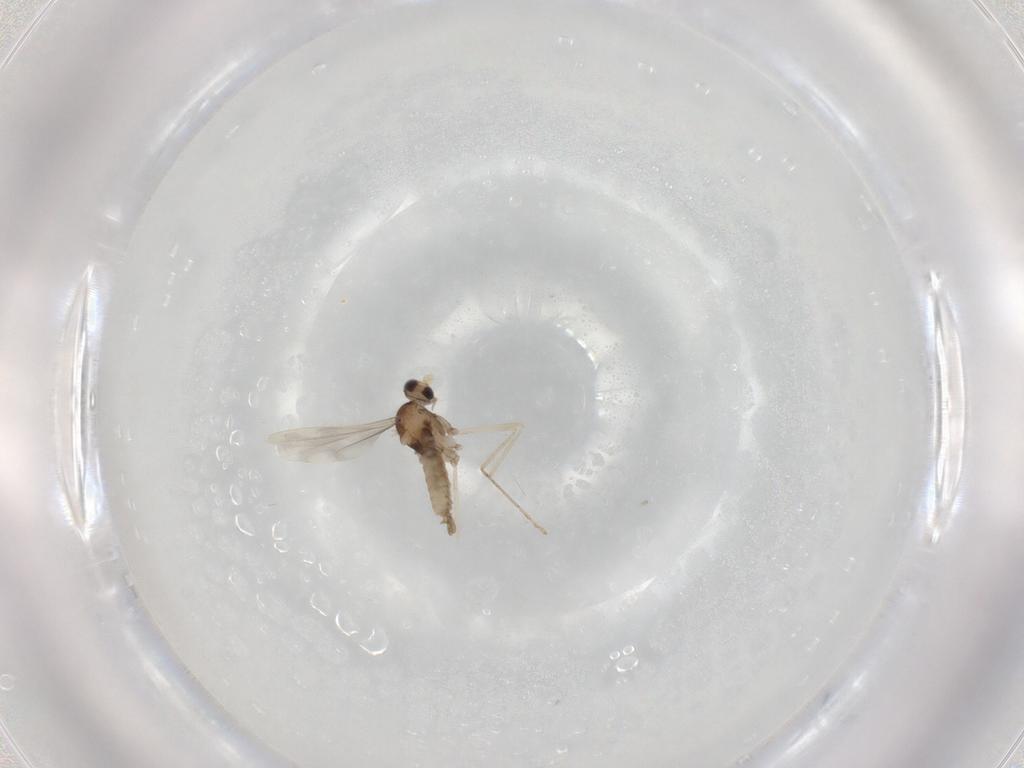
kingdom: Animalia
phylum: Arthropoda
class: Insecta
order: Diptera
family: Cecidomyiidae
